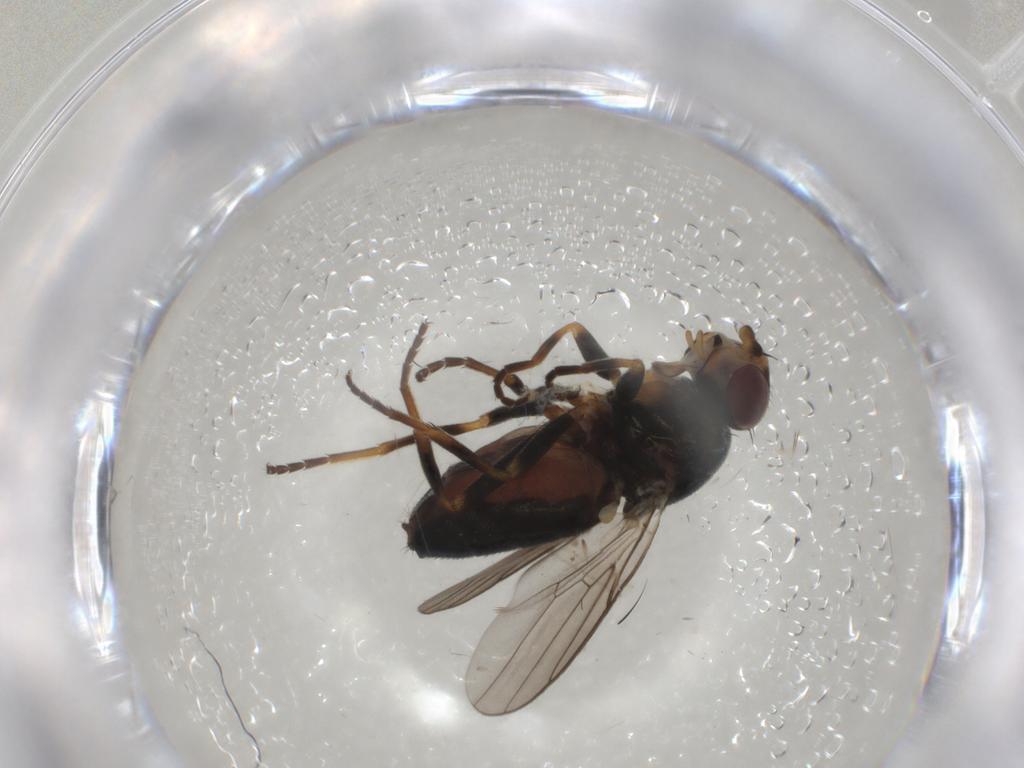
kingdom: Animalia
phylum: Arthropoda
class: Insecta
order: Diptera
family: Chloropidae
